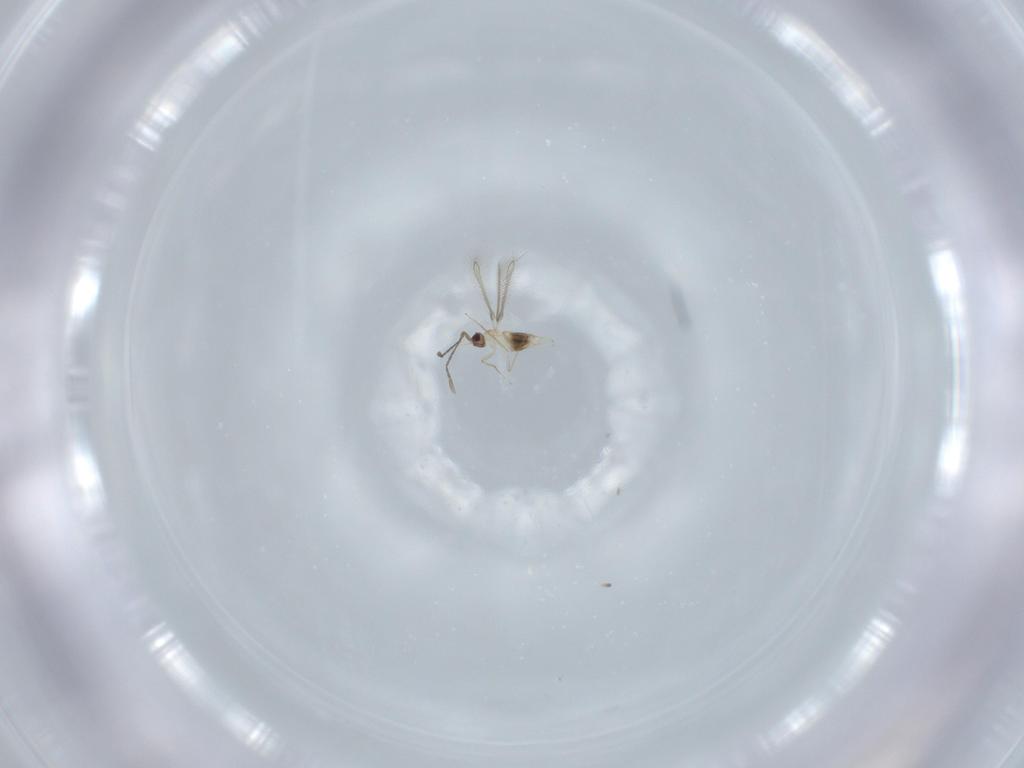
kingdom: Animalia
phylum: Arthropoda
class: Insecta
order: Hymenoptera
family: Mymaridae
